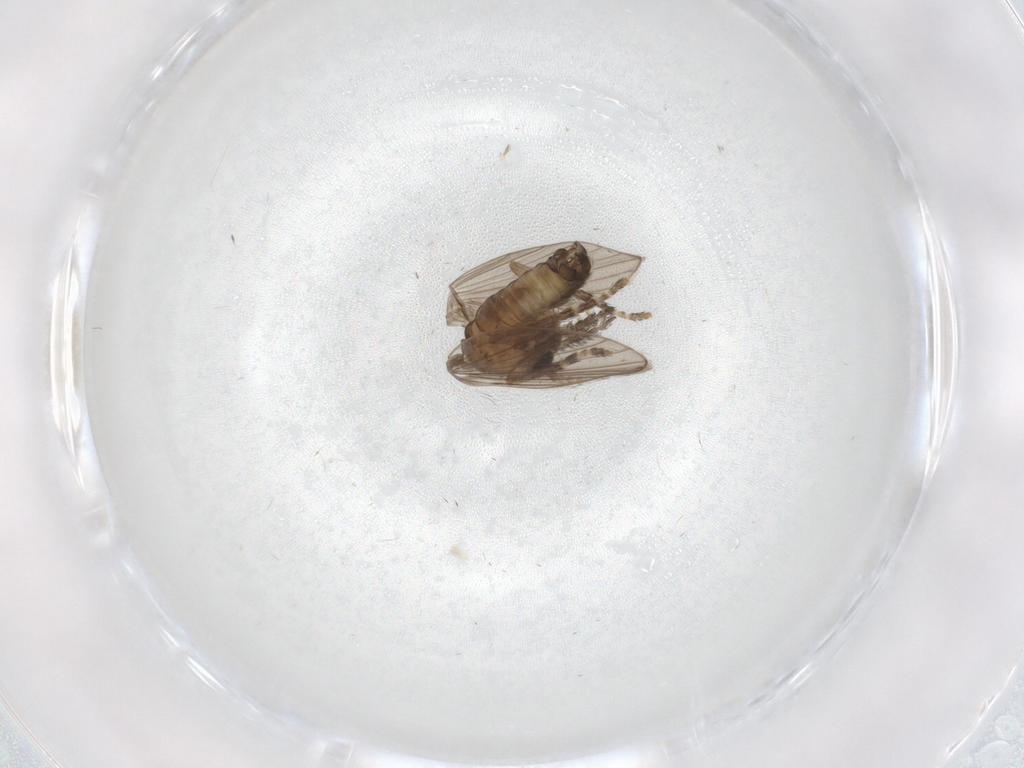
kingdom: Animalia
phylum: Arthropoda
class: Insecta
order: Diptera
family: Psychodidae
